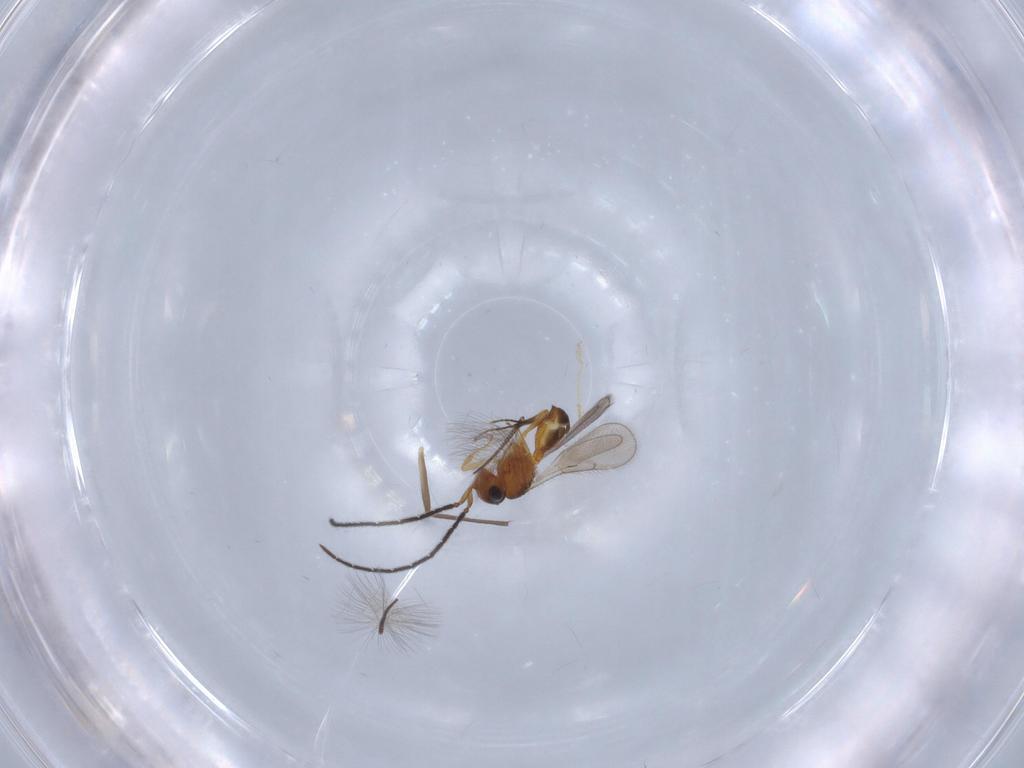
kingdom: Animalia
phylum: Arthropoda
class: Insecta
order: Hymenoptera
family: Scelionidae
